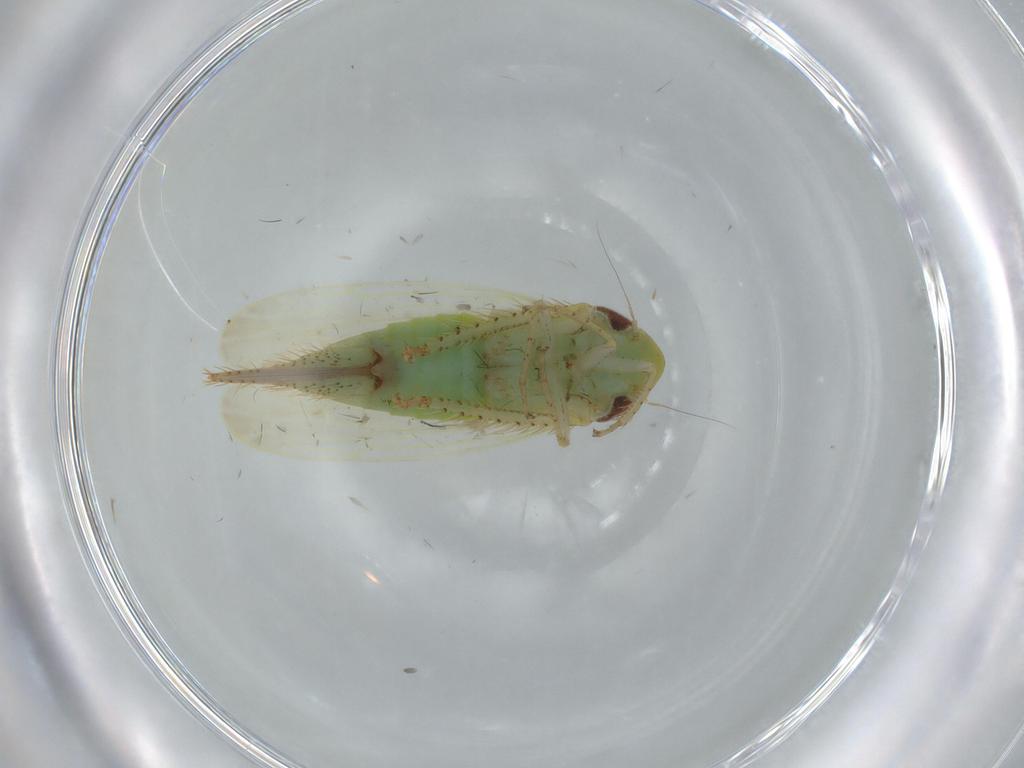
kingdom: Animalia
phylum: Arthropoda
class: Insecta
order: Hemiptera
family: Cicadellidae
